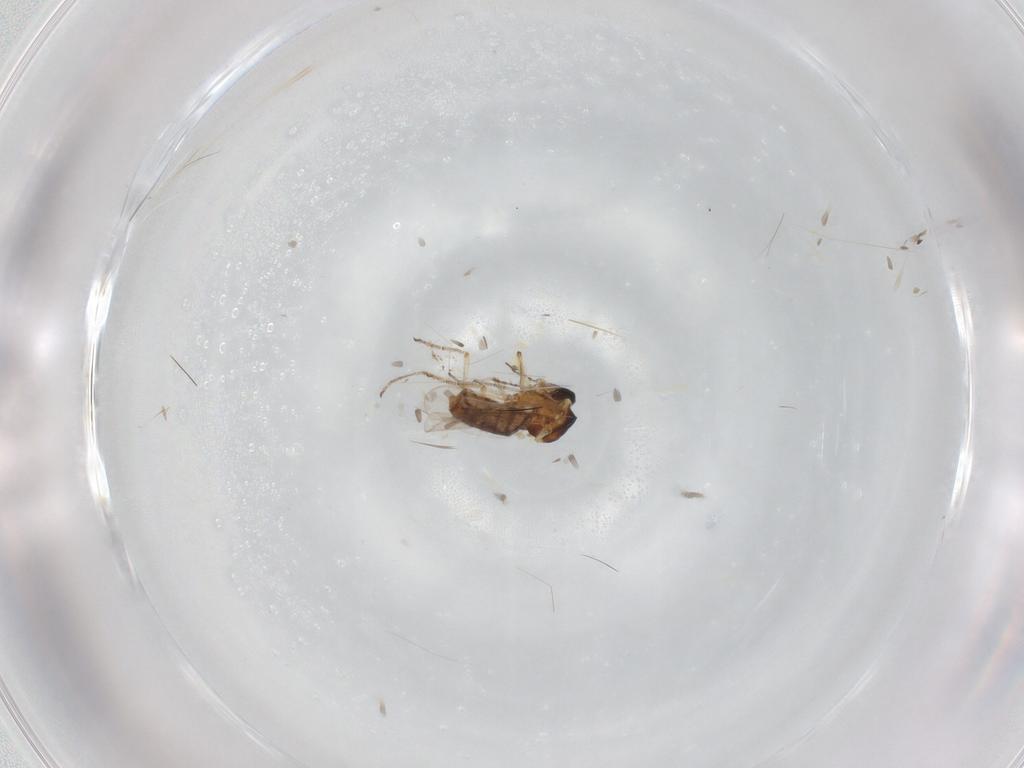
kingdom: Animalia
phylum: Arthropoda
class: Insecta
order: Diptera
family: Ceratopogonidae
